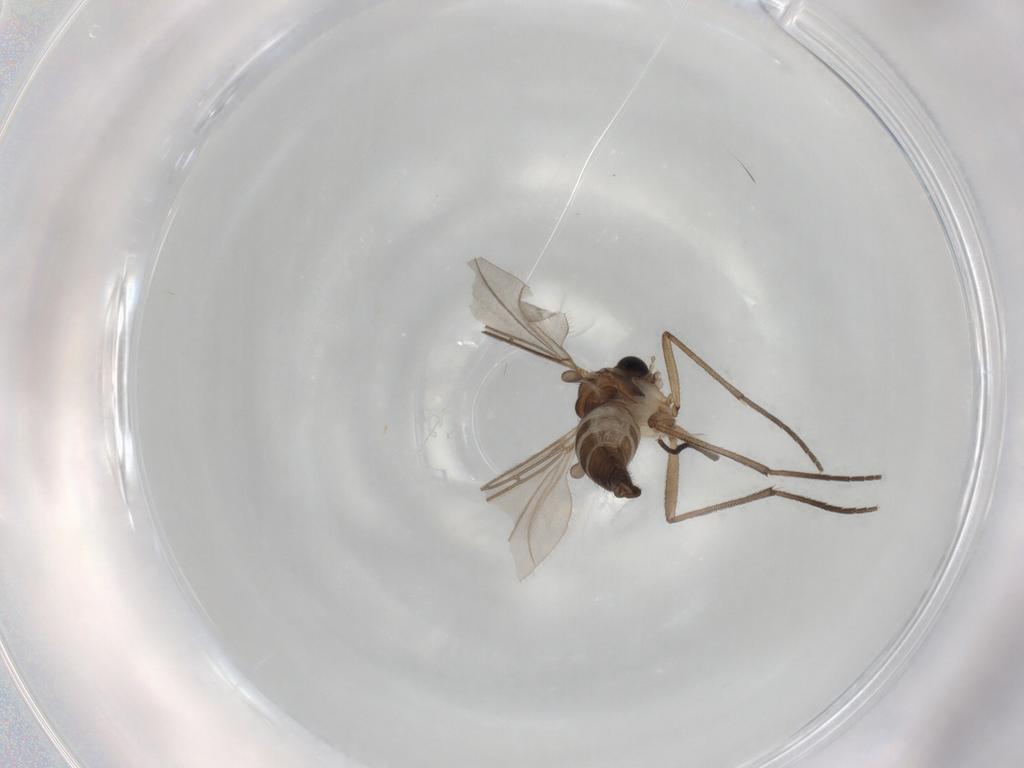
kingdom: Animalia
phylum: Arthropoda
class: Insecta
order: Diptera
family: Sciaridae
